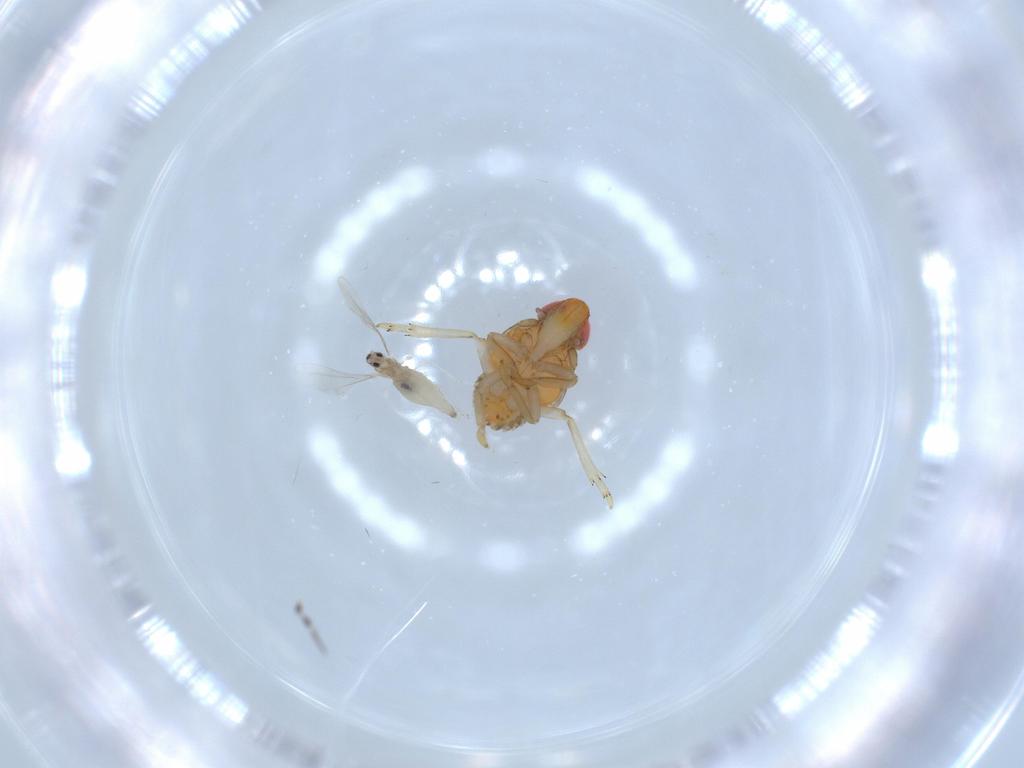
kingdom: Animalia
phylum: Arthropoda
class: Insecta
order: Diptera
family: Cecidomyiidae
